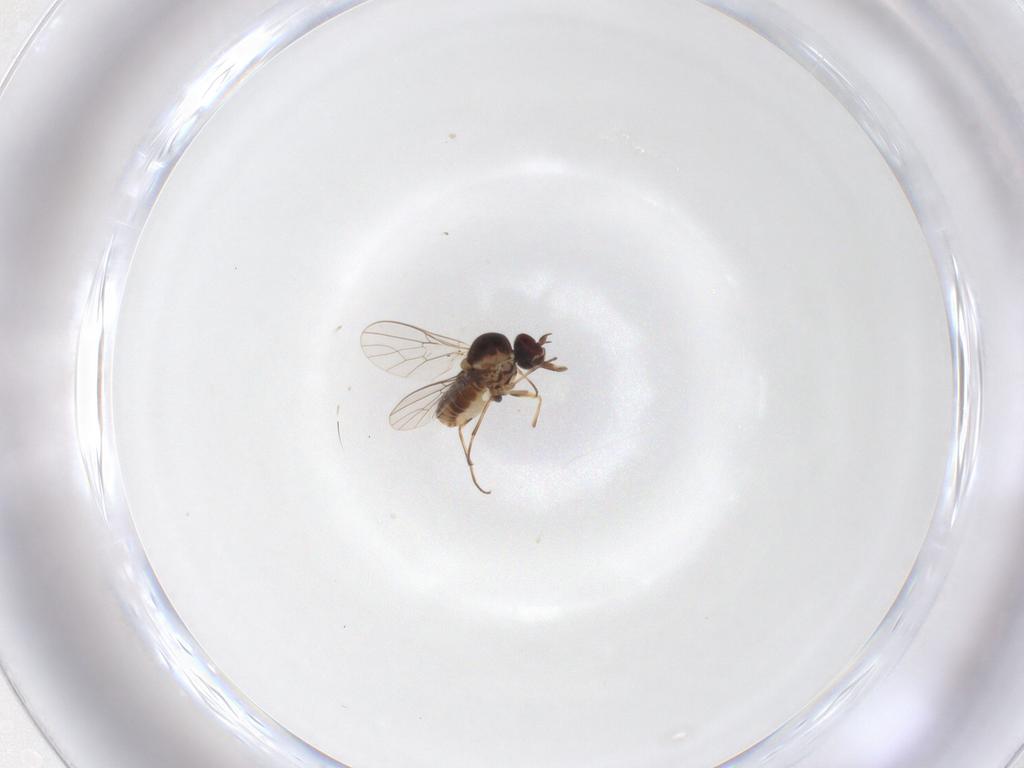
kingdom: Animalia
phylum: Arthropoda
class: Insecta
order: Diptera
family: Bombyliidae
